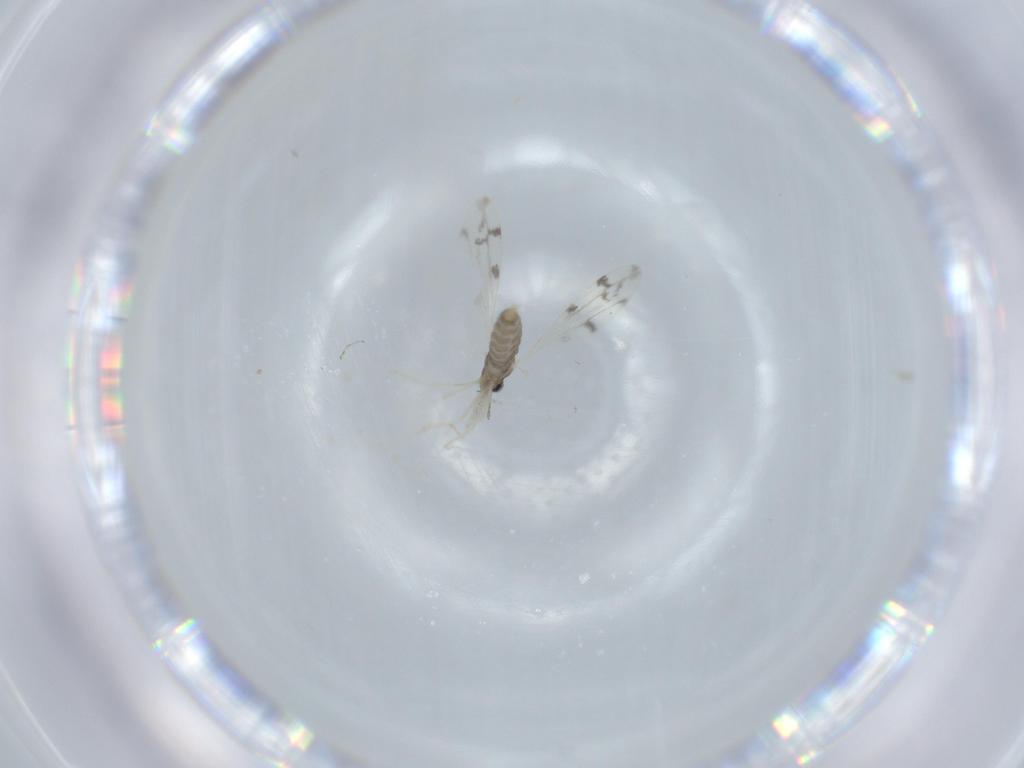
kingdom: Animalia
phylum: Arthropoda
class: Insecta
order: Diptera
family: Cecidomyiidae
